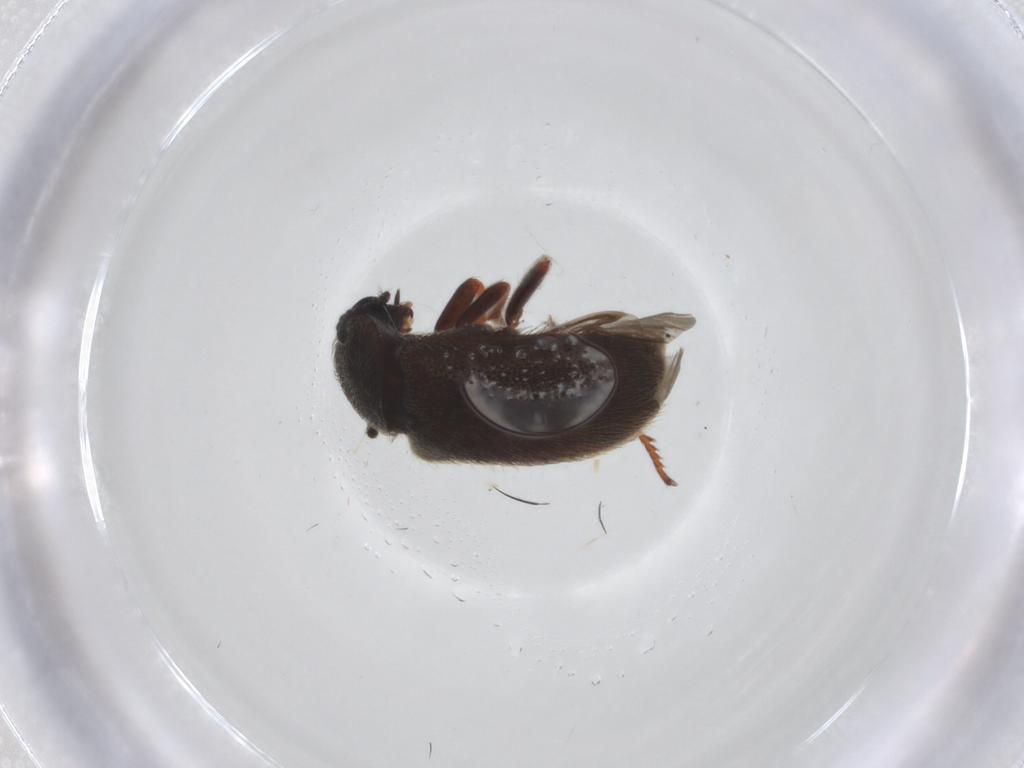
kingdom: Animalia
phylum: Arthropoda
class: Insecta
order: Coleoptera
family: Melyridae
